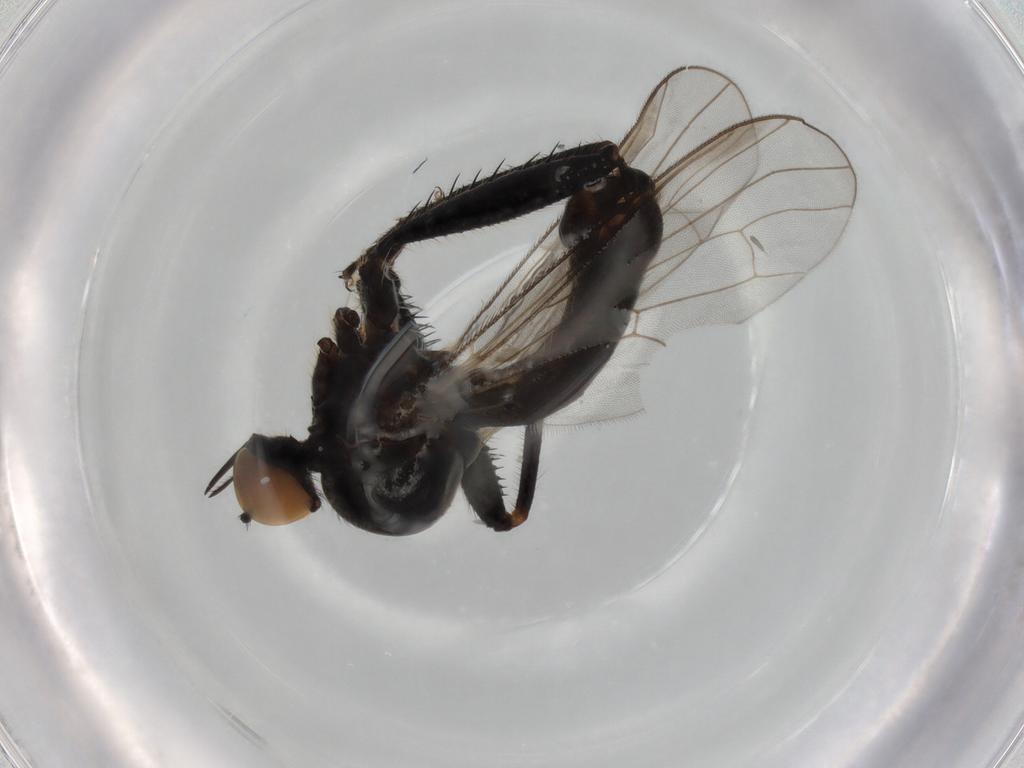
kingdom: Animalia
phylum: Arthropoda
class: Insecta
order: Diptera
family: Hybotidae
